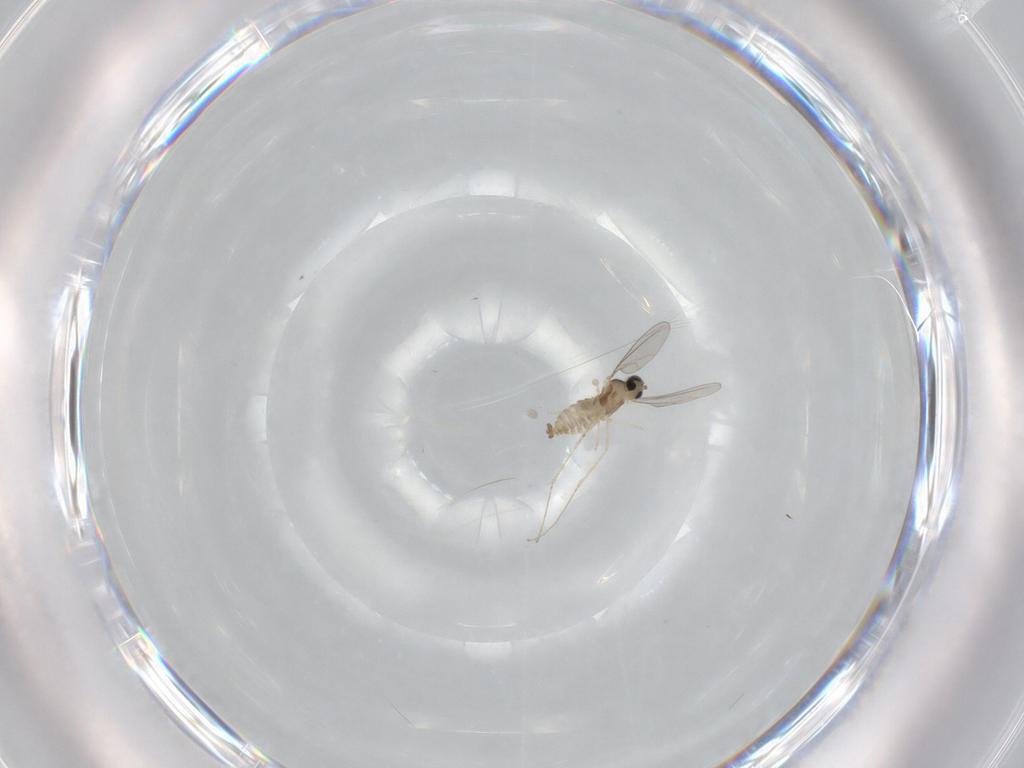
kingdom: Animalia
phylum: Arthropoda
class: Insecta
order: Diptera
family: Cecidomyiidae
